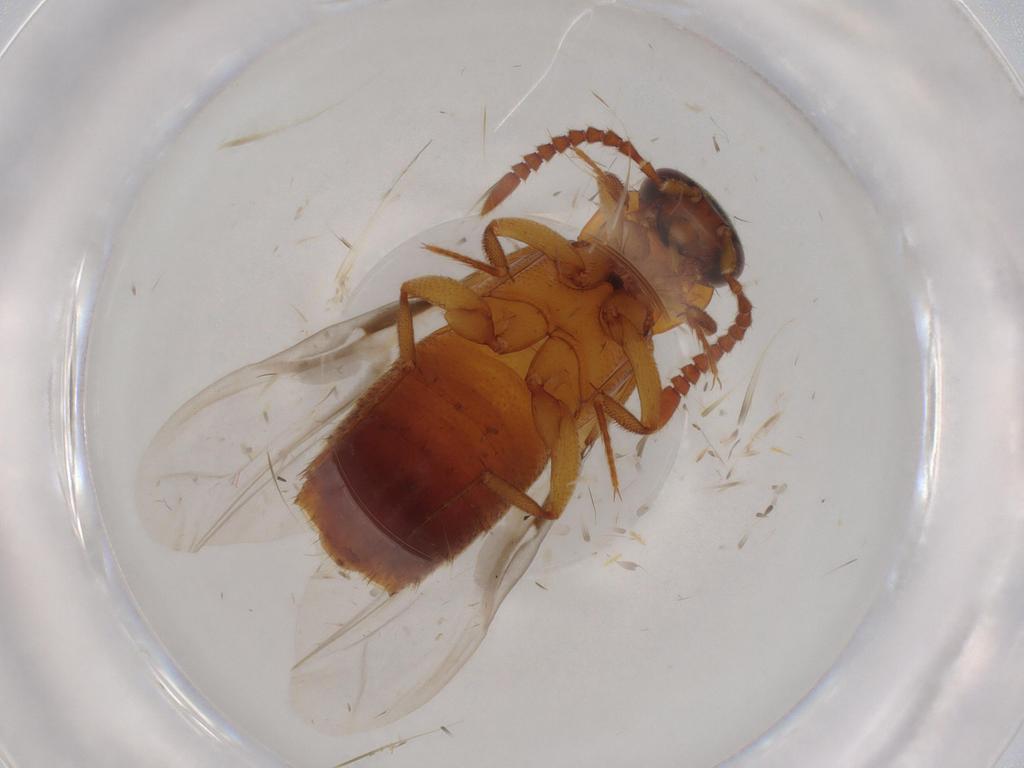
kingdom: Animalia
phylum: Arthropoda
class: Insecta
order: Coleoptera
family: Staphylinidae
